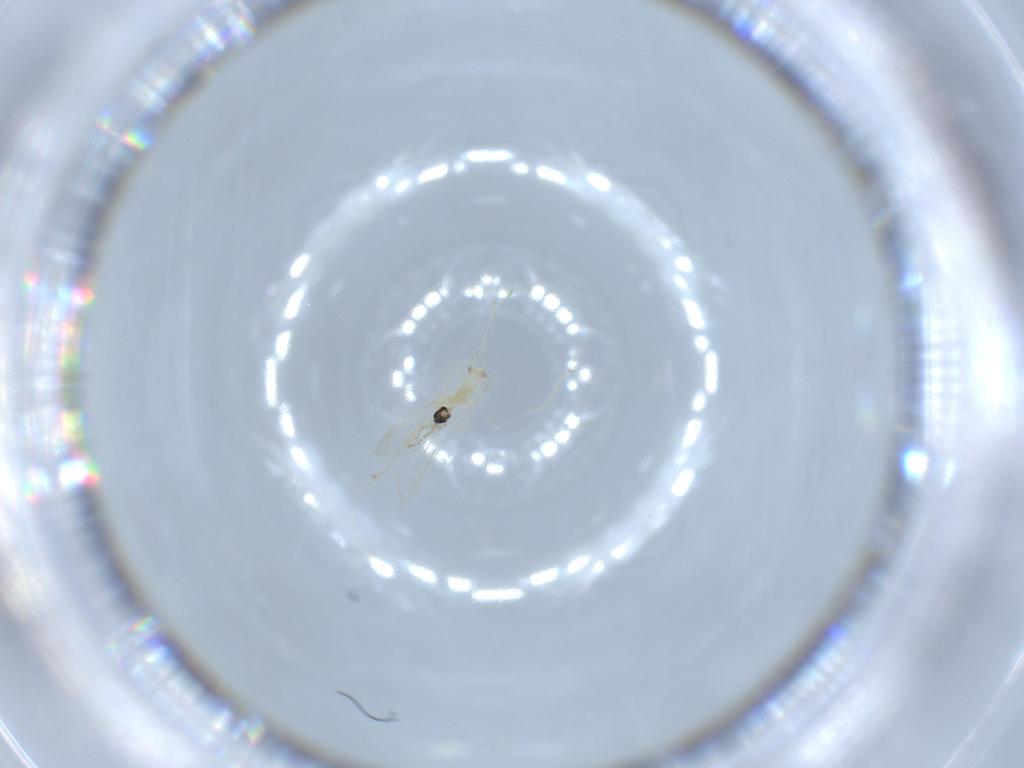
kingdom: Animalia
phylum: Arthropoda
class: Insecta
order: Diptera
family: Cecidomyiidae
